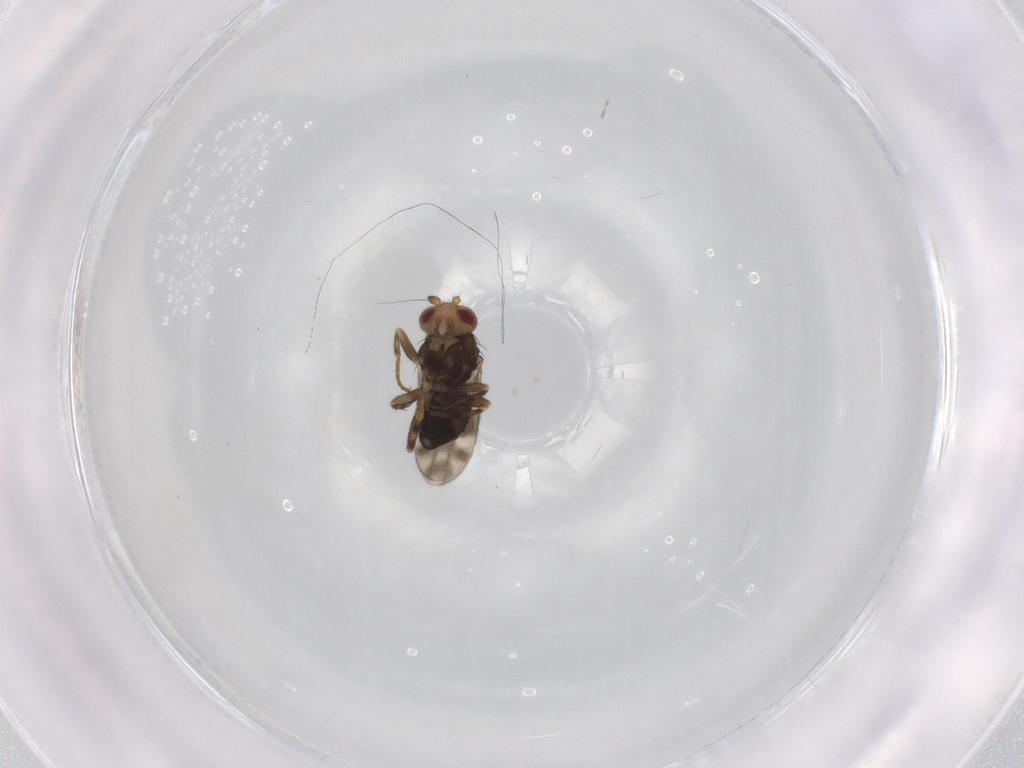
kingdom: Animalia
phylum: Arthropoda
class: Insecta
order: Diptera
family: Sphaeroceridae
